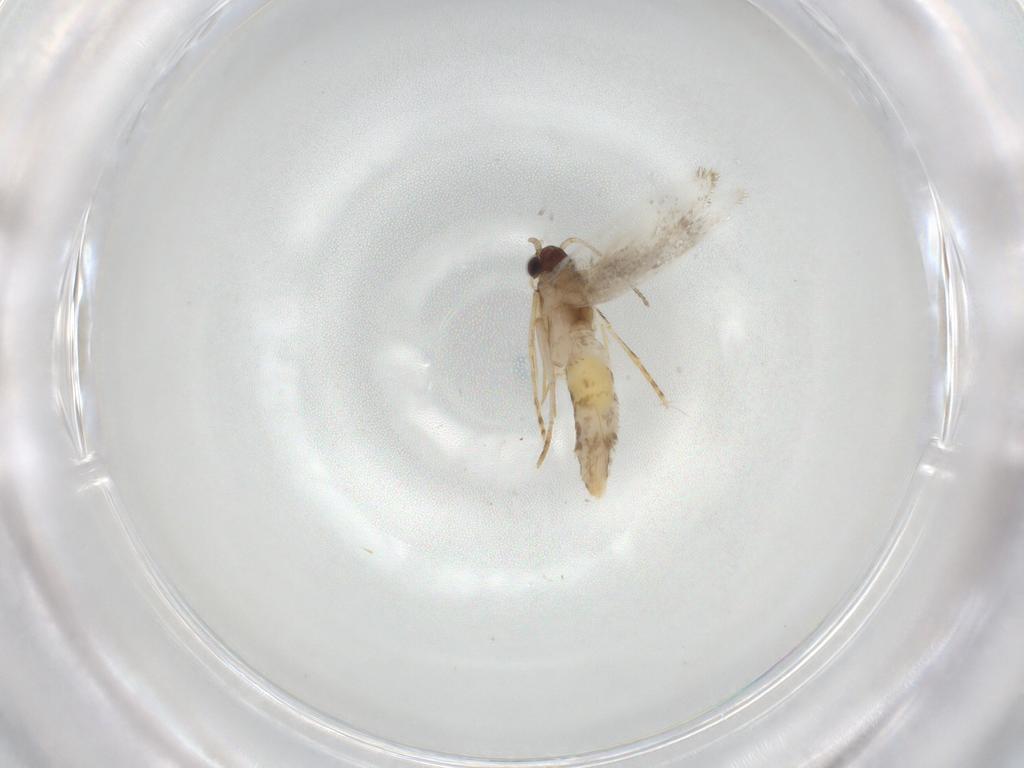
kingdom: Animalia
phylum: Arthropoda
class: Insecta
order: Lepidoptera
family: Tineidae
